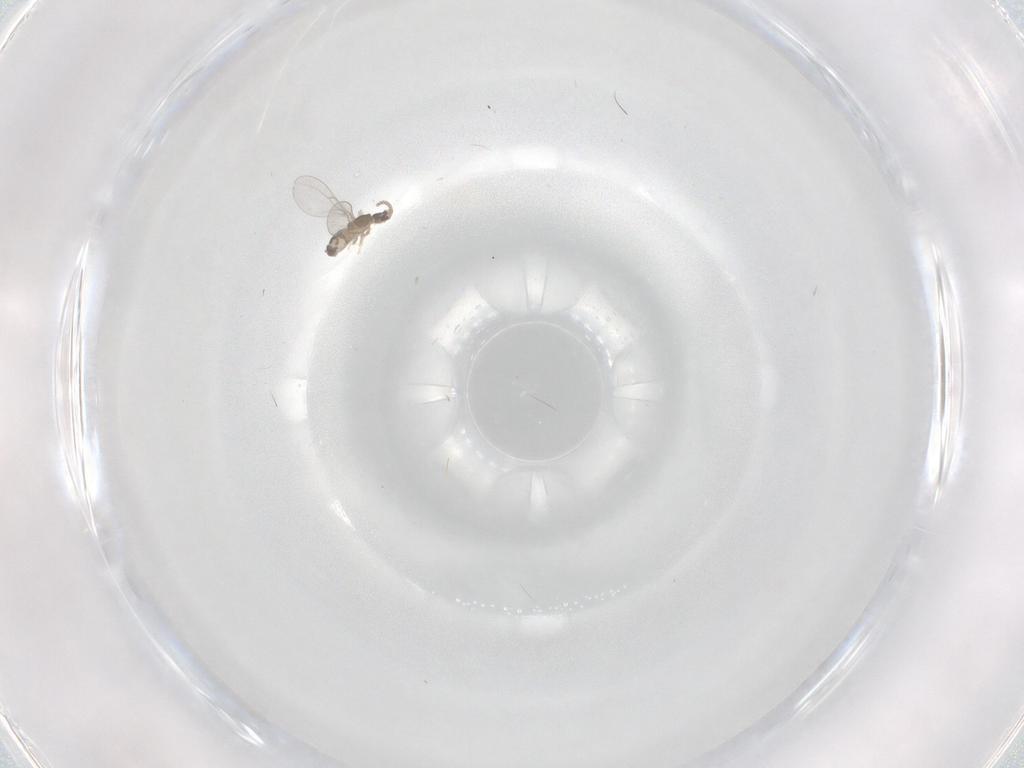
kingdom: Animalia
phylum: Arthropoda
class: Insecta
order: Diptera
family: Cecidomyiidae
